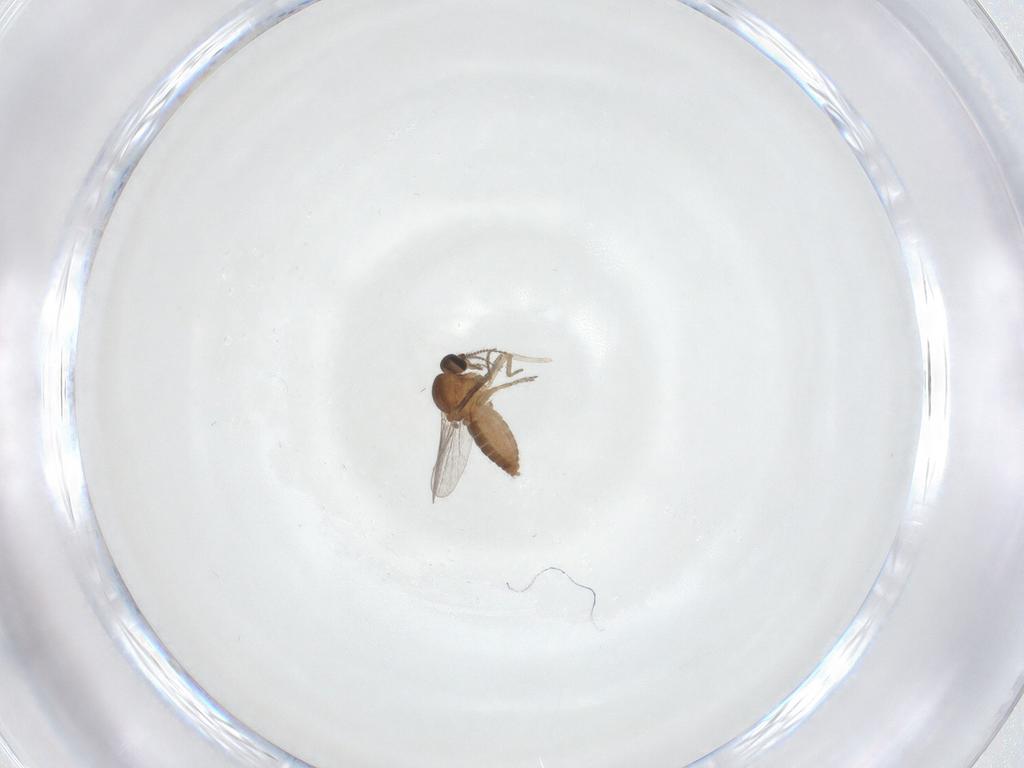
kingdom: Animalia
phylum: Arthropoda
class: Insecta
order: Diptera
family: Ceratopogonidae
